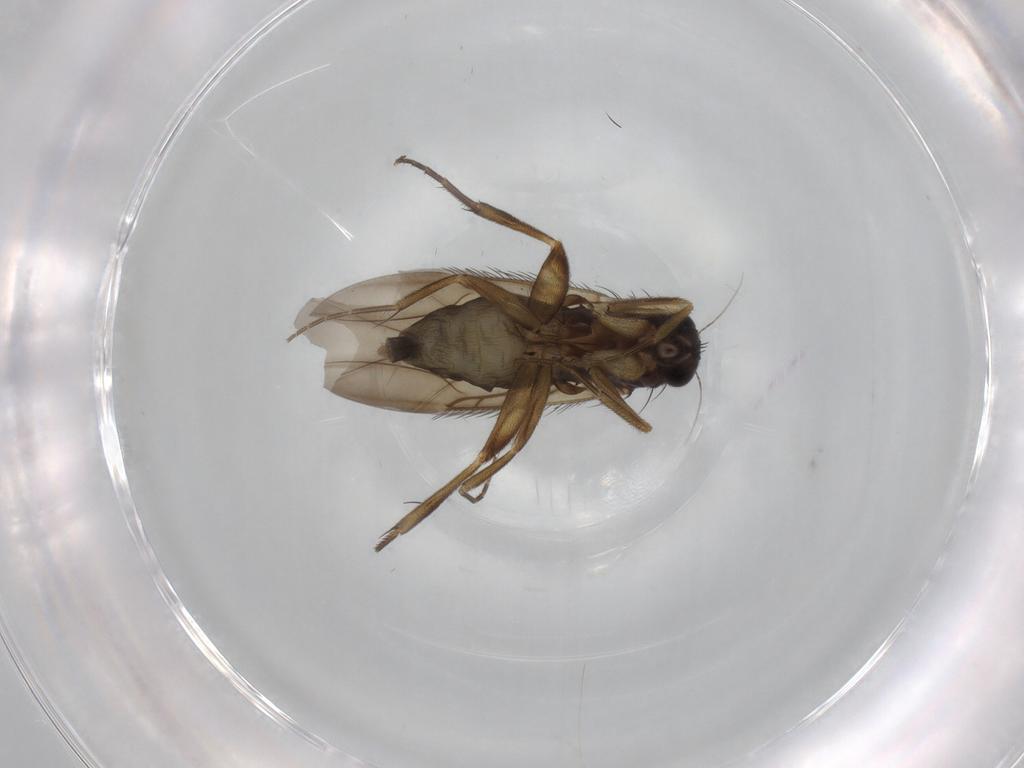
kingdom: Animalia
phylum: Arthropoda
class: Insecta
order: Diptera
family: Phoridae
